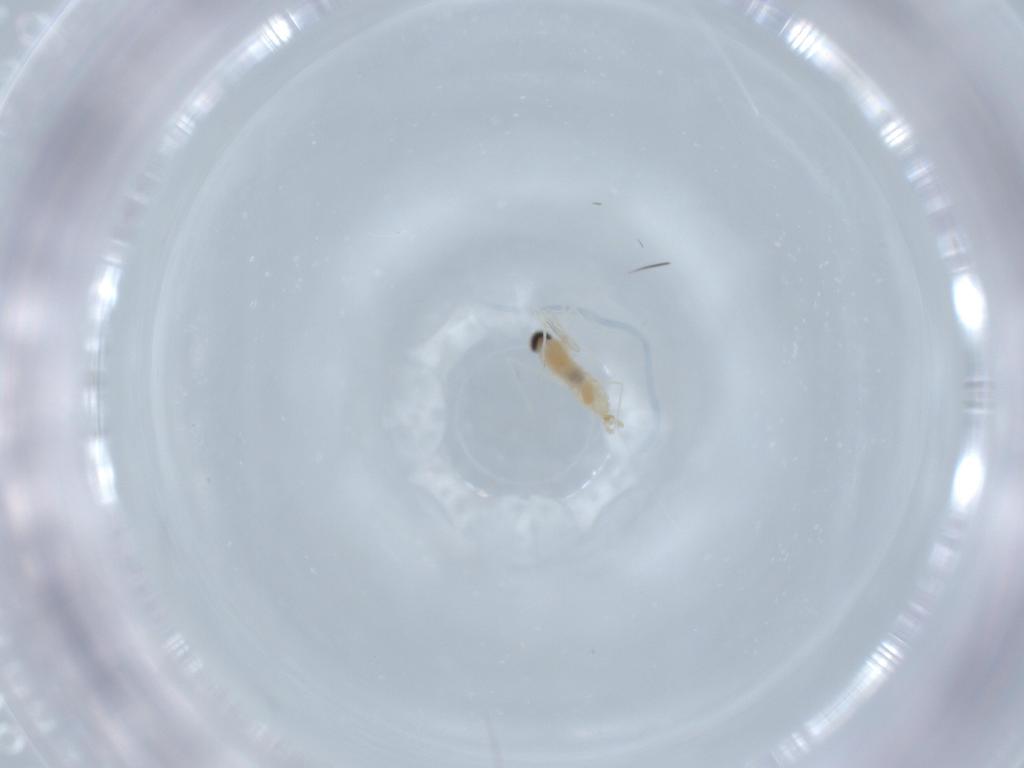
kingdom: Animalia
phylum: Arthropoda
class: Insecta
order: Diptera
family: Cecidomyiidae
